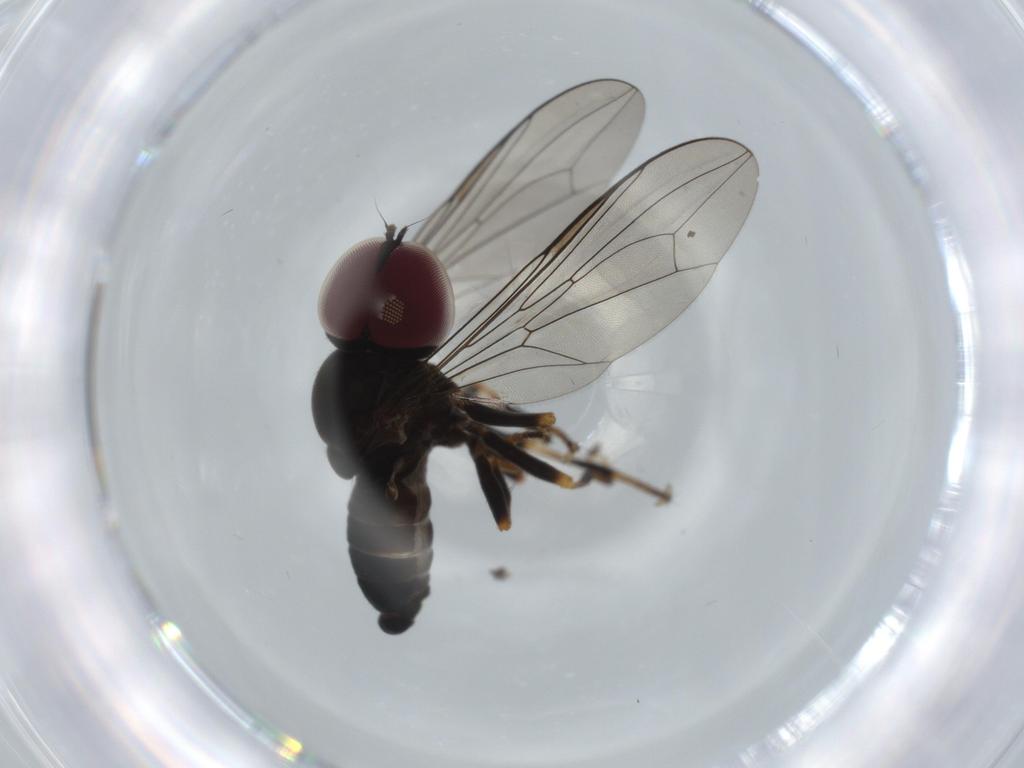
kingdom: Animalia
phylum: Arthropoda
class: Insecta
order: Diptera
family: Pipunculidae
